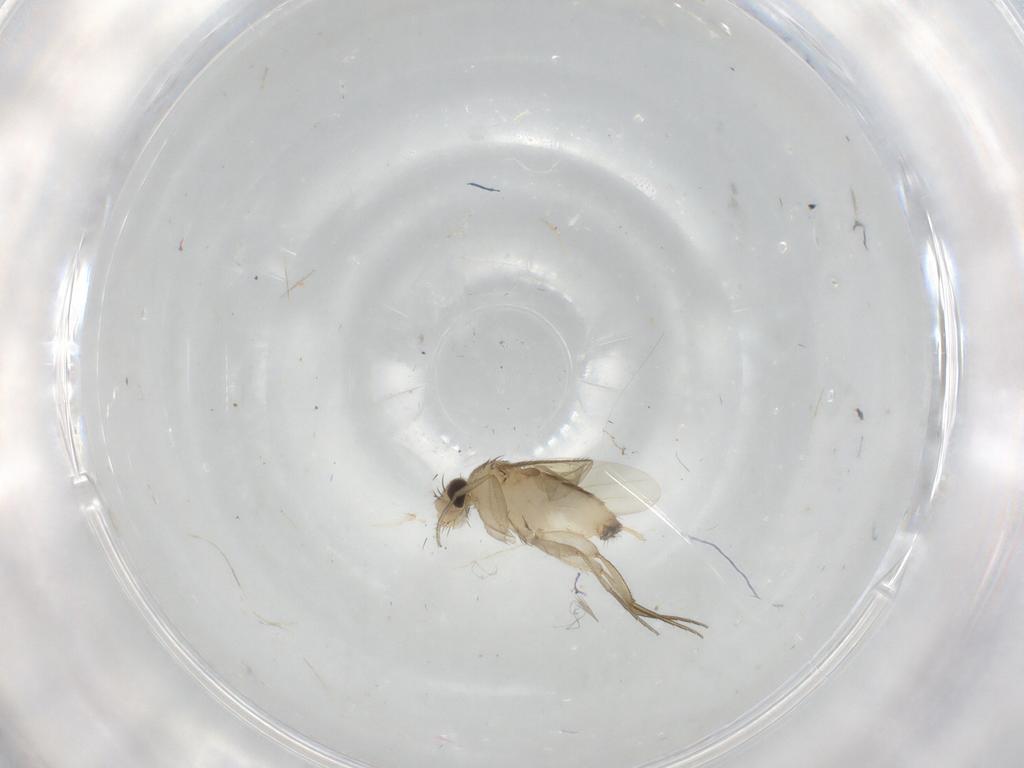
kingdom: Animalia
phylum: Arthropoda
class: Insecta
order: Diptera
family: Phoridae
